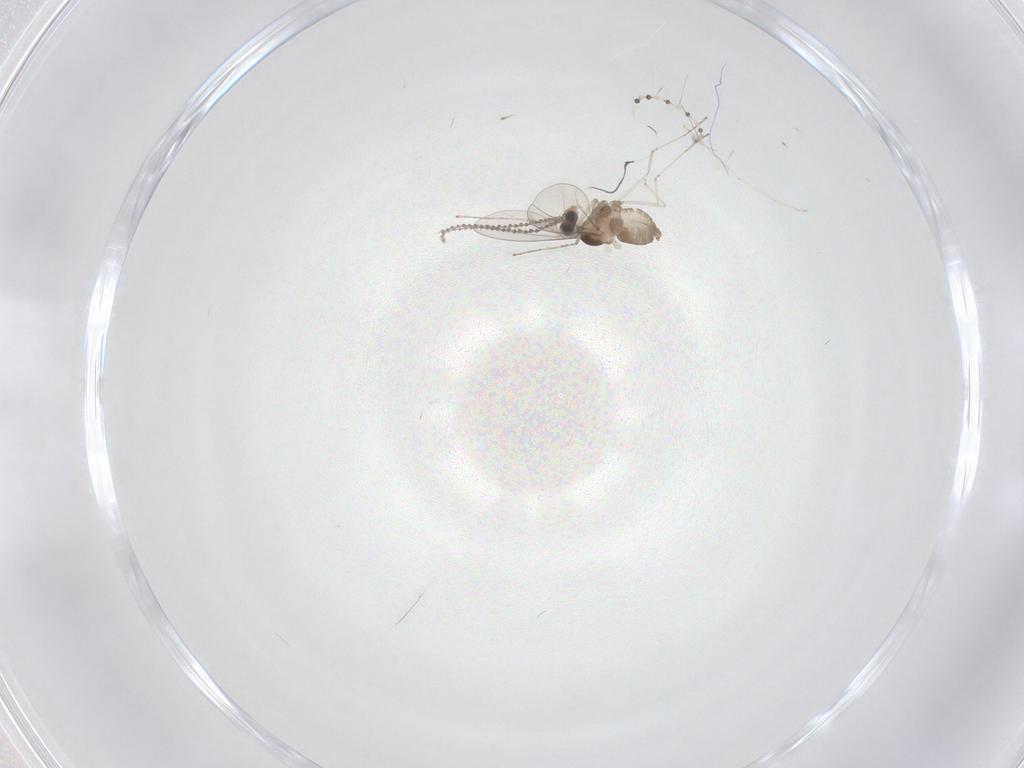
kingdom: Animalia
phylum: Arthropoda
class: Insecta
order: Diptera
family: Cecidomyiidae
